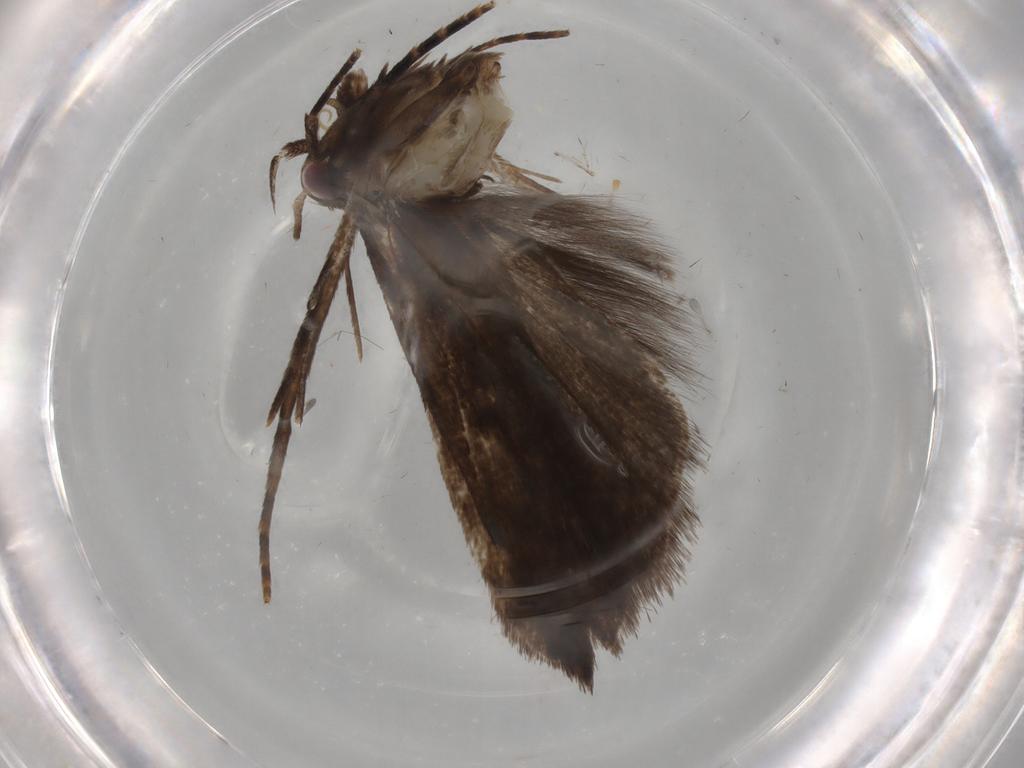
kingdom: Animalia
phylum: Arthropoda
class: Insecta
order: Lepidoptera
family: Gelechiidae
